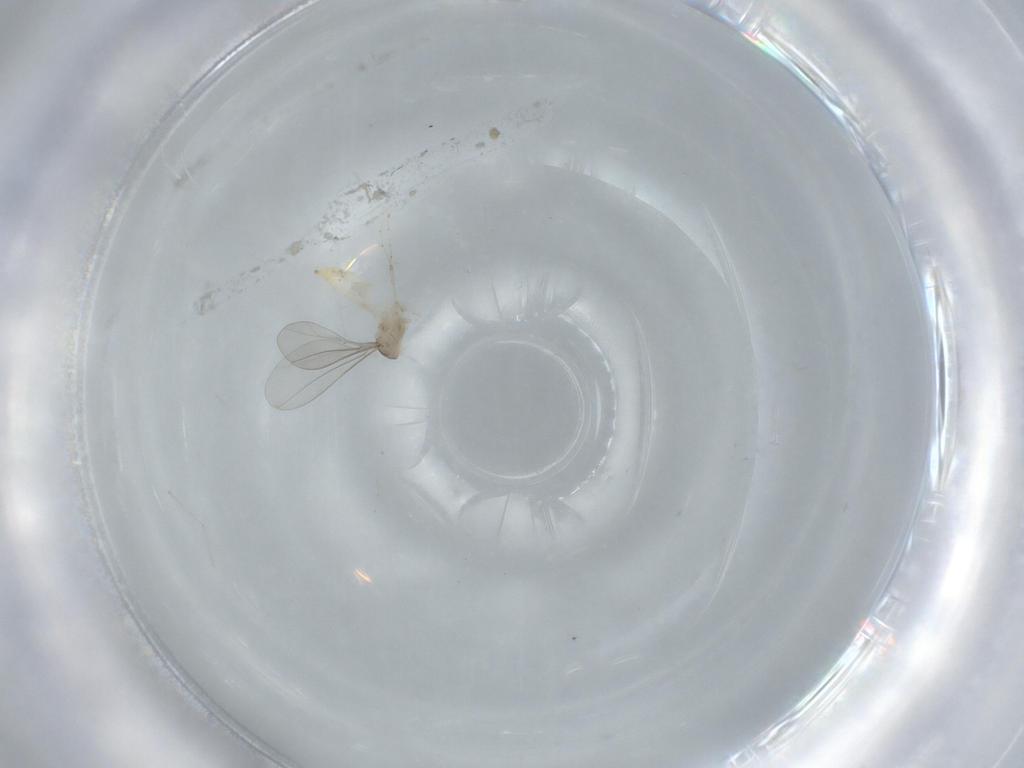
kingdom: Animalia
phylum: Arthropoda
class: Insecta
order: Diptera
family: Cecidomyiidae
